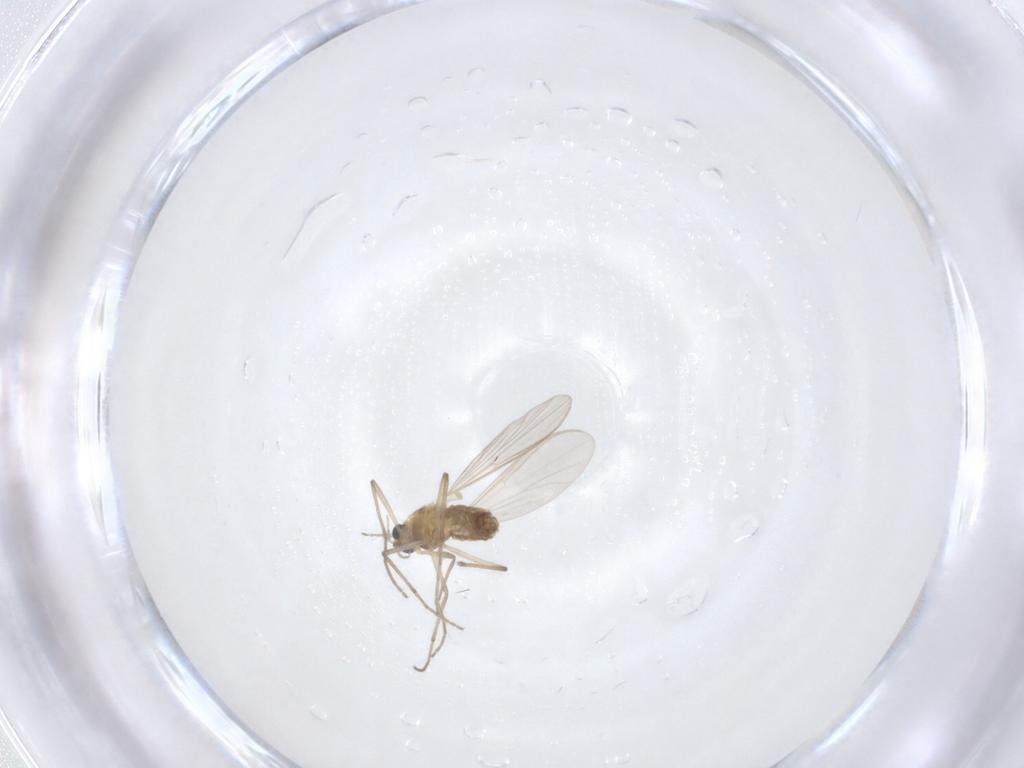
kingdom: Animalia
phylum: Arthropoda
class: Insecta
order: Diptera
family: Chironomidae
